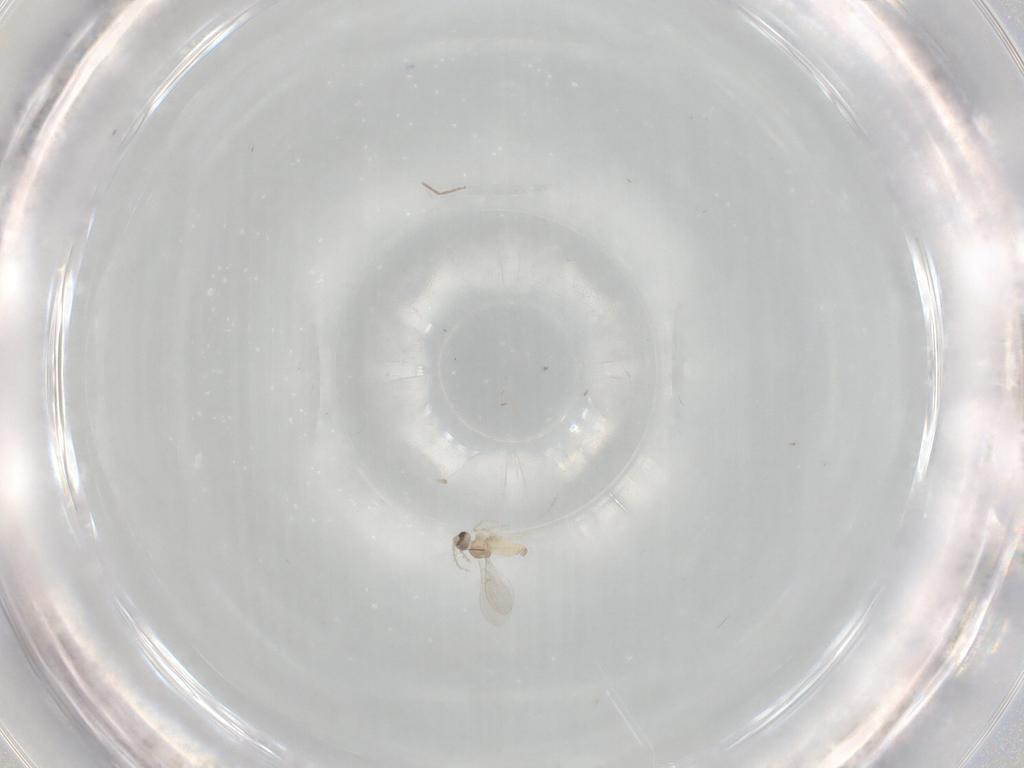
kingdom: Animalia
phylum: Arthropoda
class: Insecta
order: Diptera
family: Cecidomyiidae
